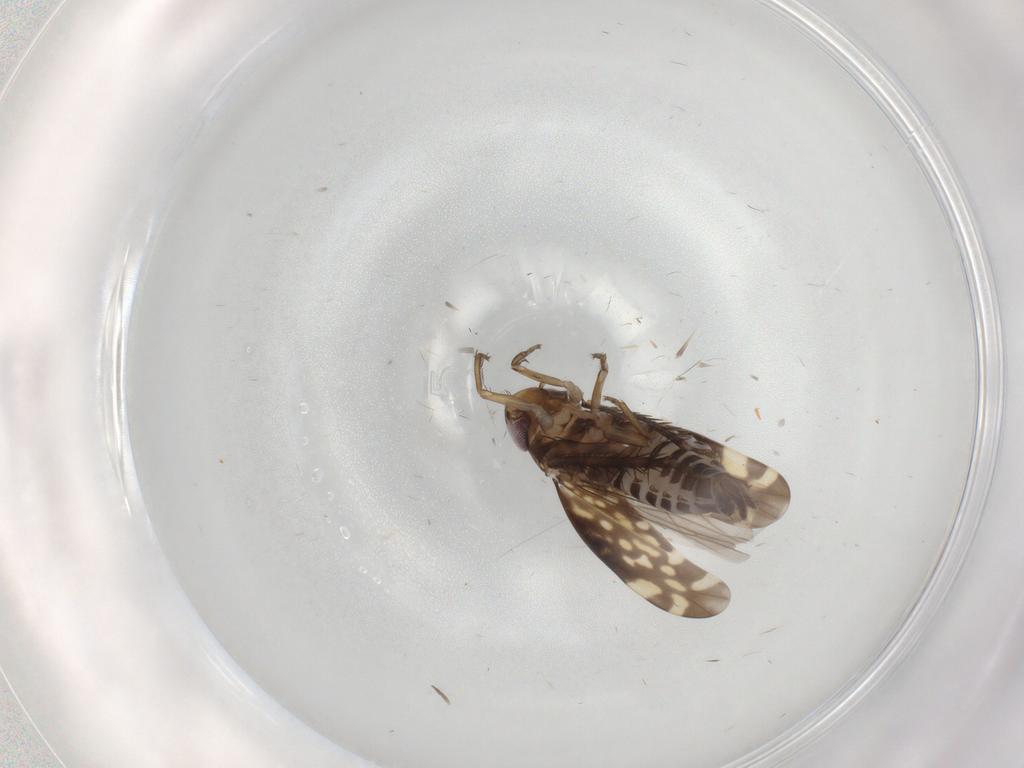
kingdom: Animalia
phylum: Arthropoda
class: Insecta
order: Hemiptera
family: Cicadellidae
